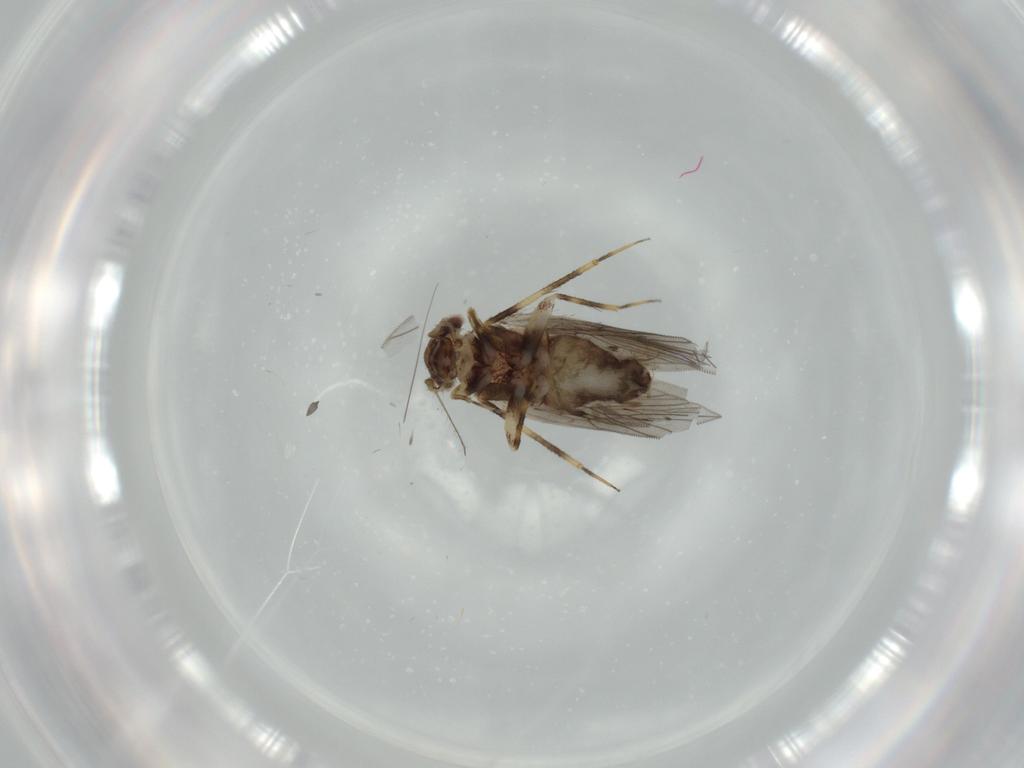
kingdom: Animalia
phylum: Arthropoda
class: Insecta
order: Psocodea
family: Lepidopsocidae
